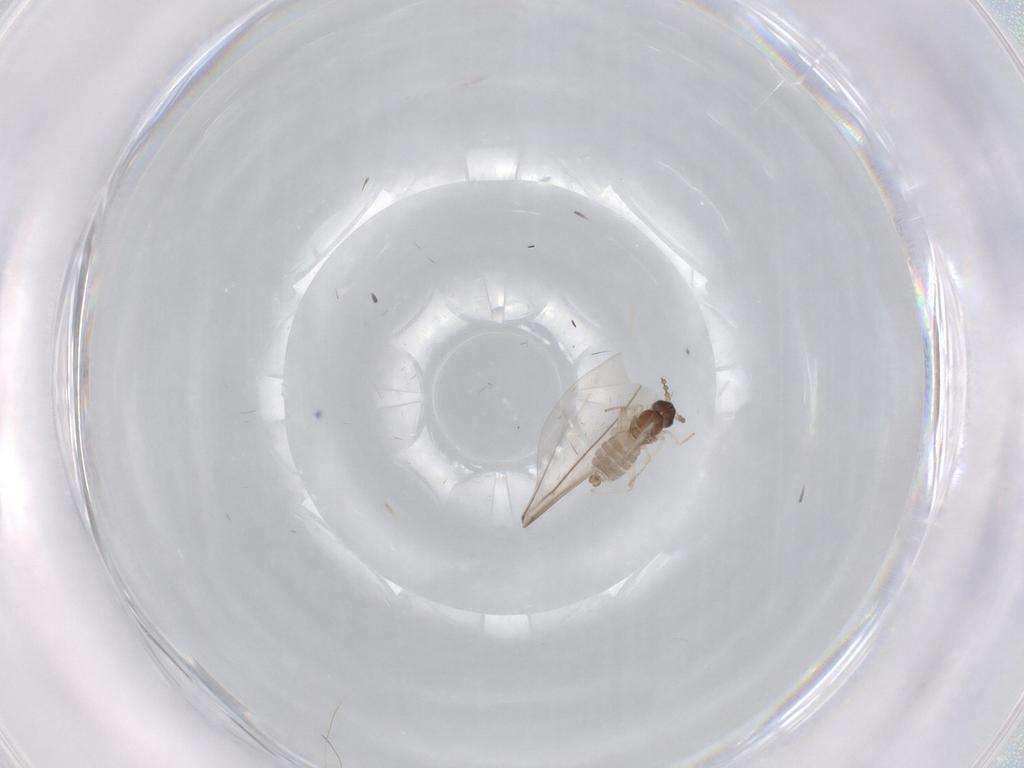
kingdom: Animalia
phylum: Arthropoda
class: Insecta
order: Diptera
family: Cecidomyiidae
